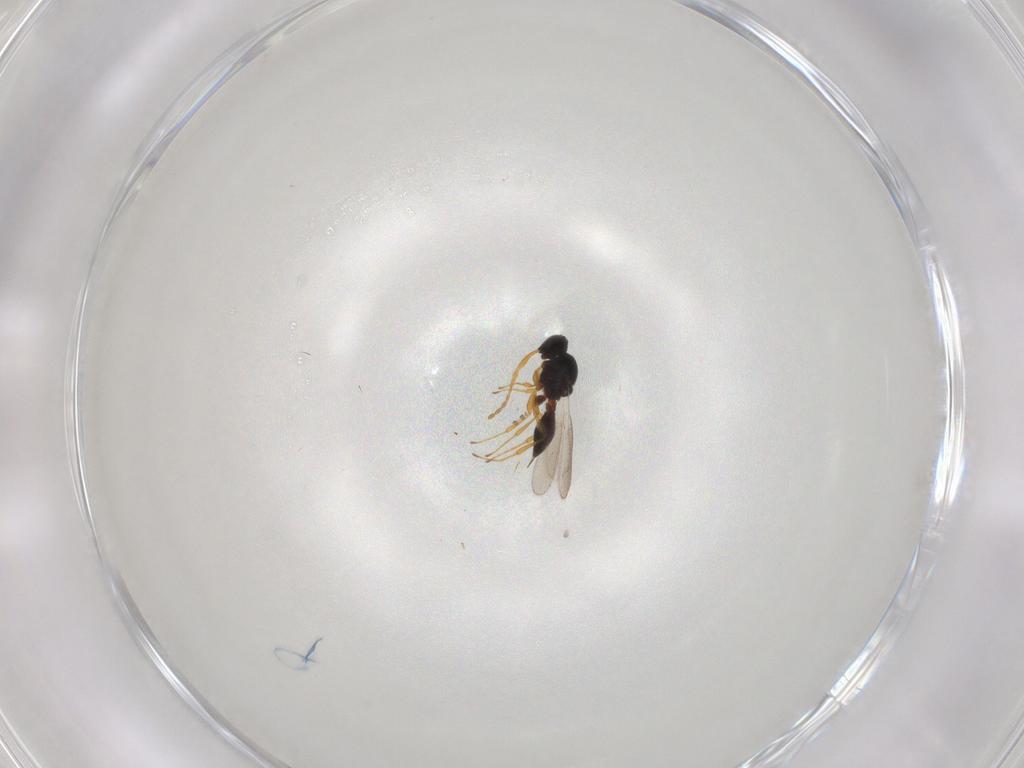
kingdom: Animalia
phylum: Arthropoda
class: Insecta
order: Hymenoptera
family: Platygastridae
